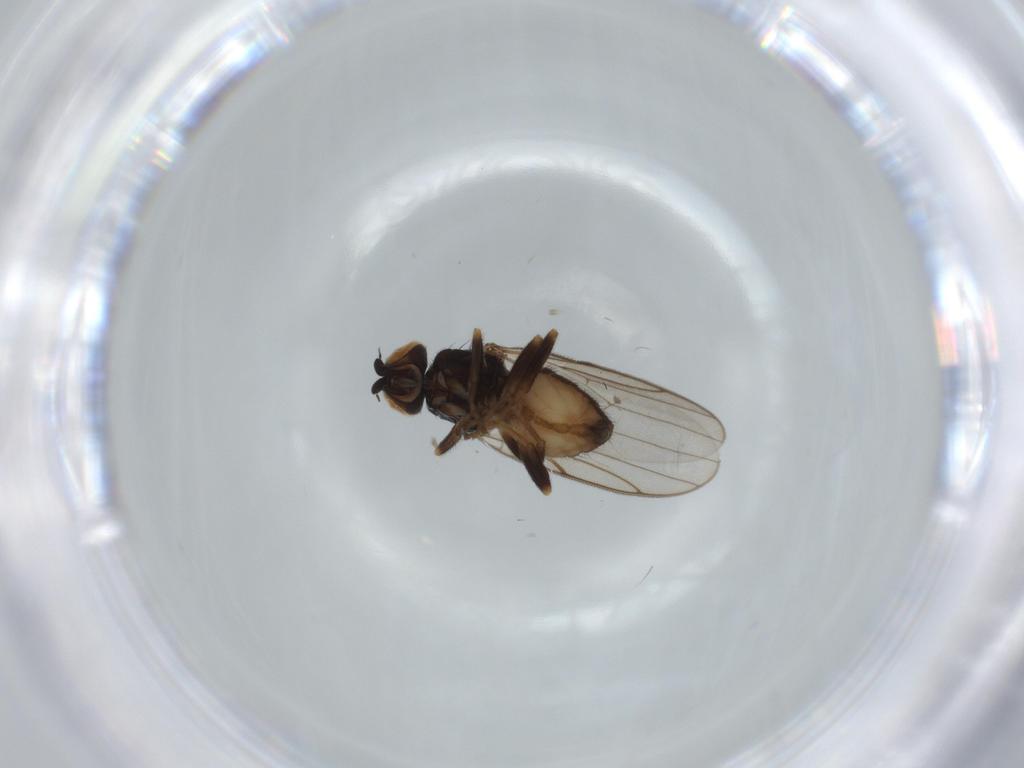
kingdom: Animalia
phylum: Arthropoda
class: Insecta
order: Diptera
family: Chloropidae
